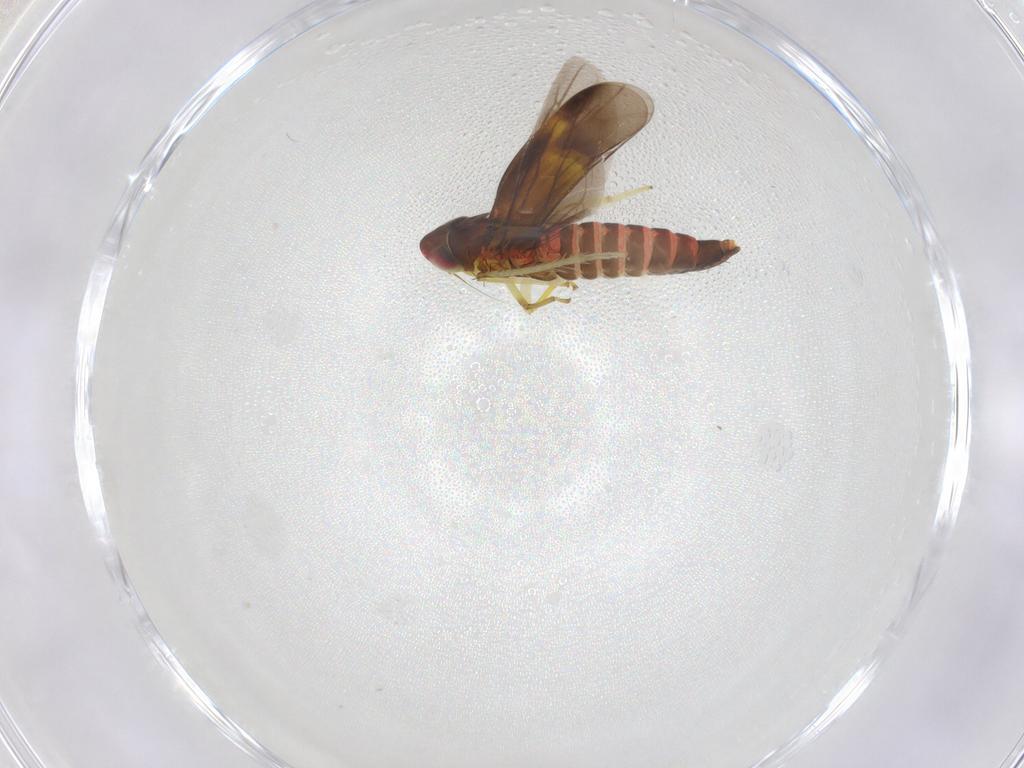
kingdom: Animalia
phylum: Arthropoda
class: Insecta
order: Hemiptera
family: Cicadellidae
